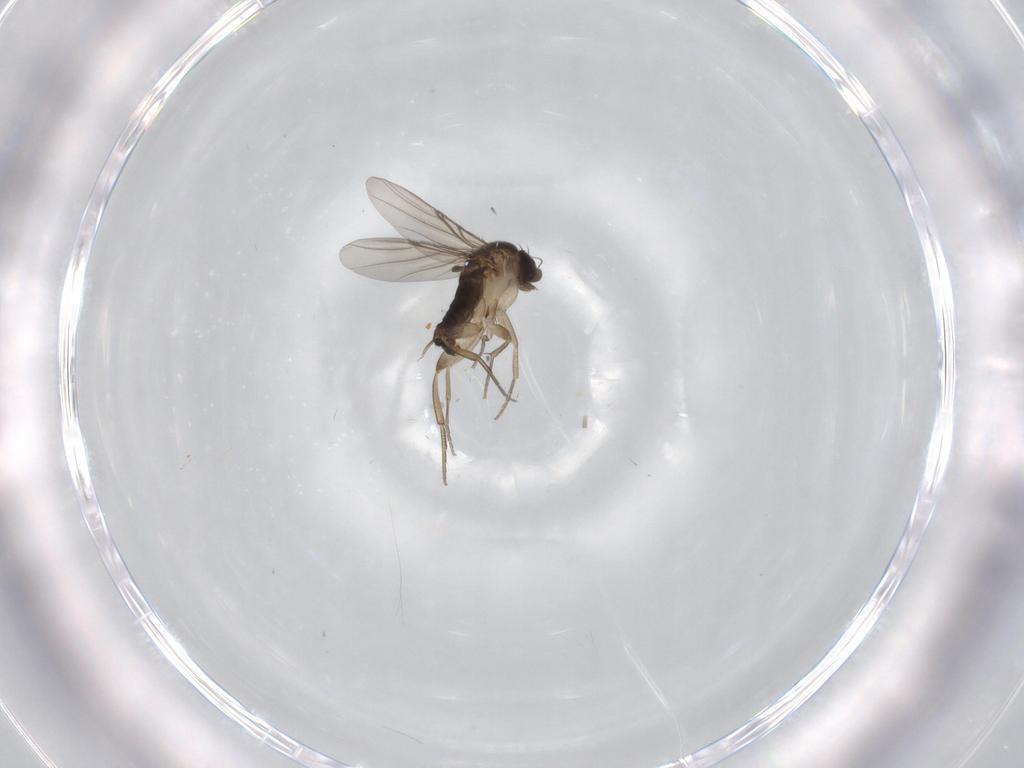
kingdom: Animalia
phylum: Arthropoda
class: Insecta
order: Diptera
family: Phoridae
